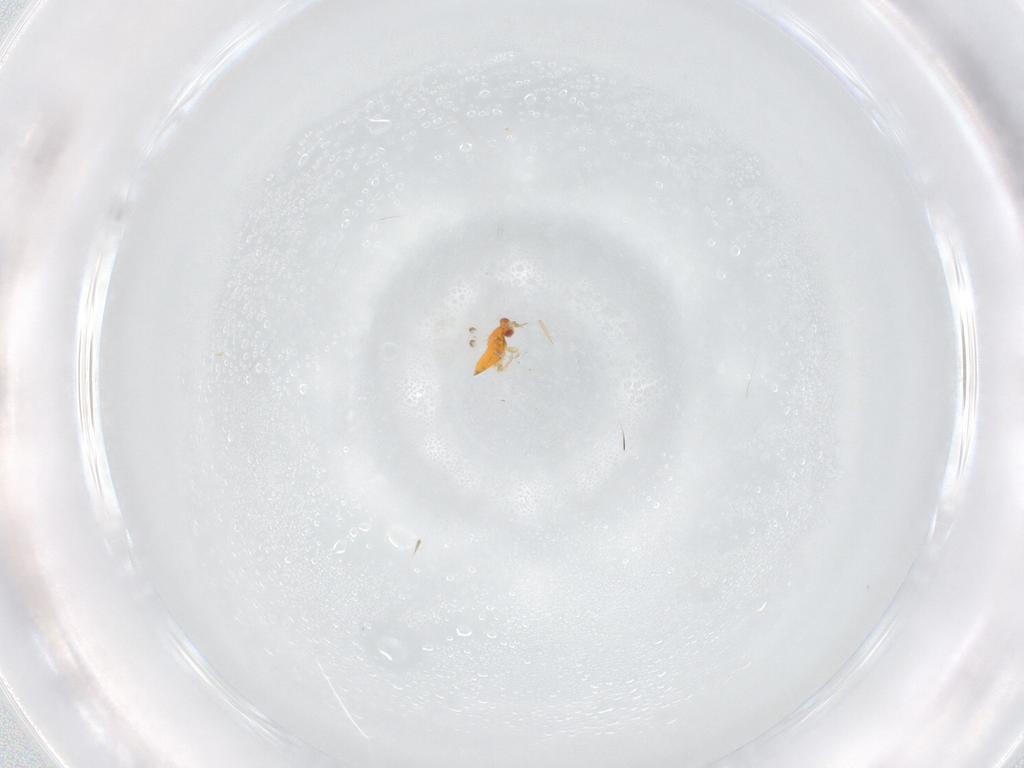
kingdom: Animalia
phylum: Arthropoda
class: Insecta
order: Hymenoptera
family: Trichogrammatidae
